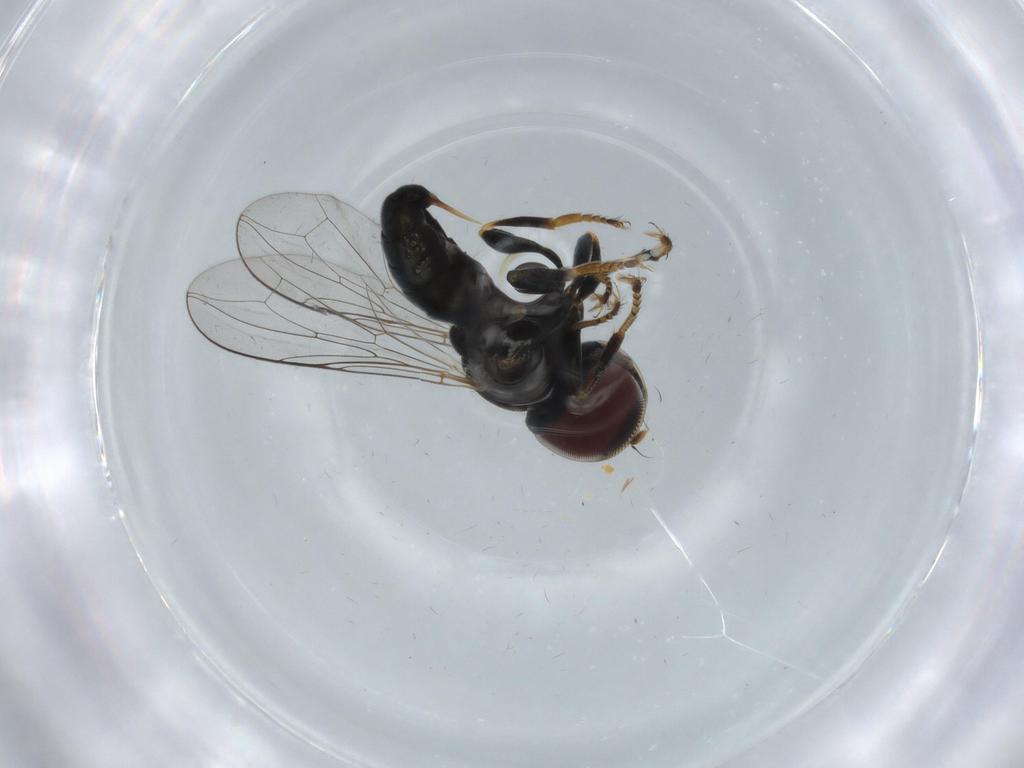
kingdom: Animalia
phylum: Arthropoda
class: Insecta
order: Diptera
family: Pipunculidae
